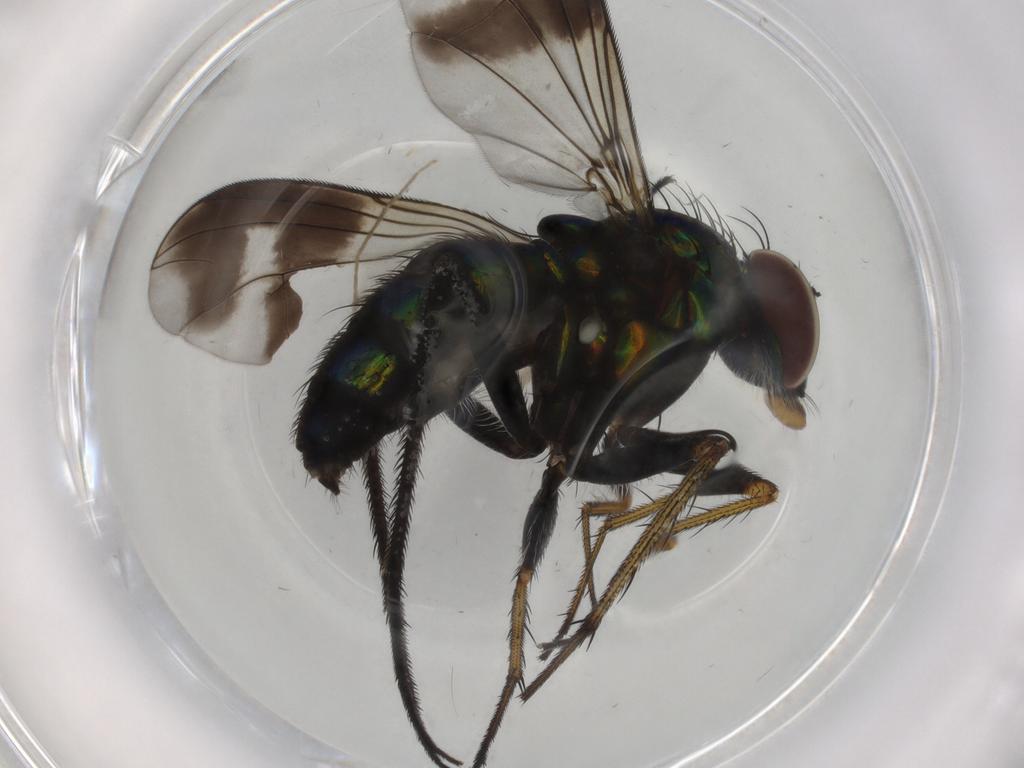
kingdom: Animalia
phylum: Arthropoda
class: Insecta
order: Diptera
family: Dolichopodidae
